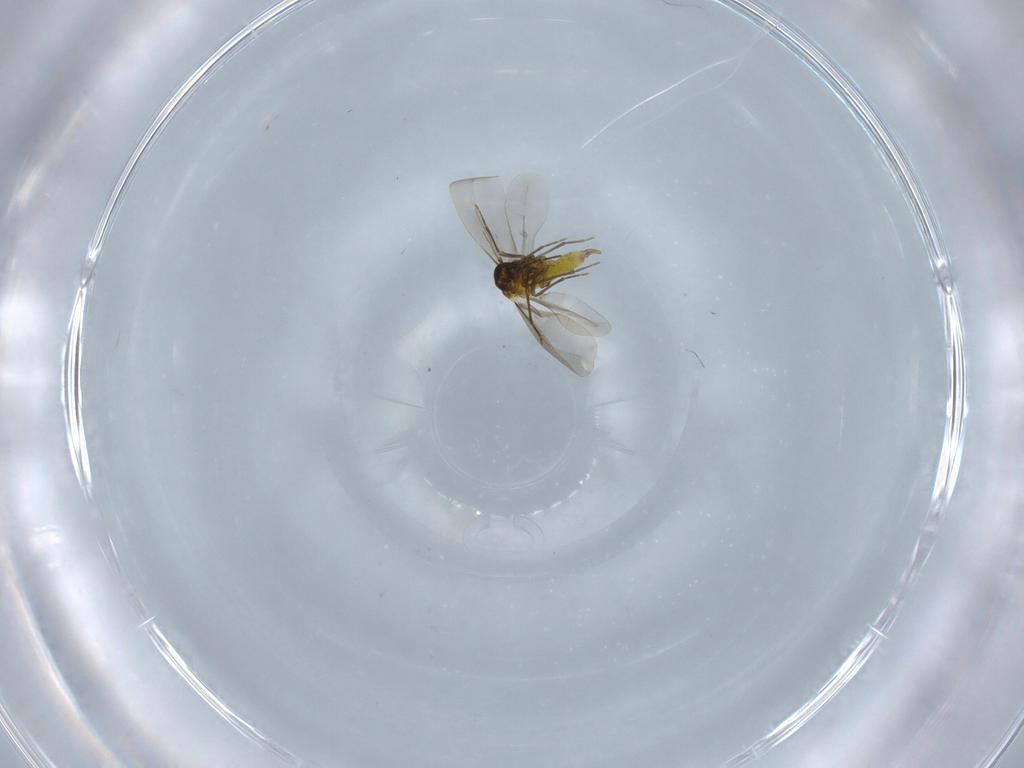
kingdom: Animalia
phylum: Arthropoda
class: Insecta
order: Hemiptera
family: Aleyrodidae
